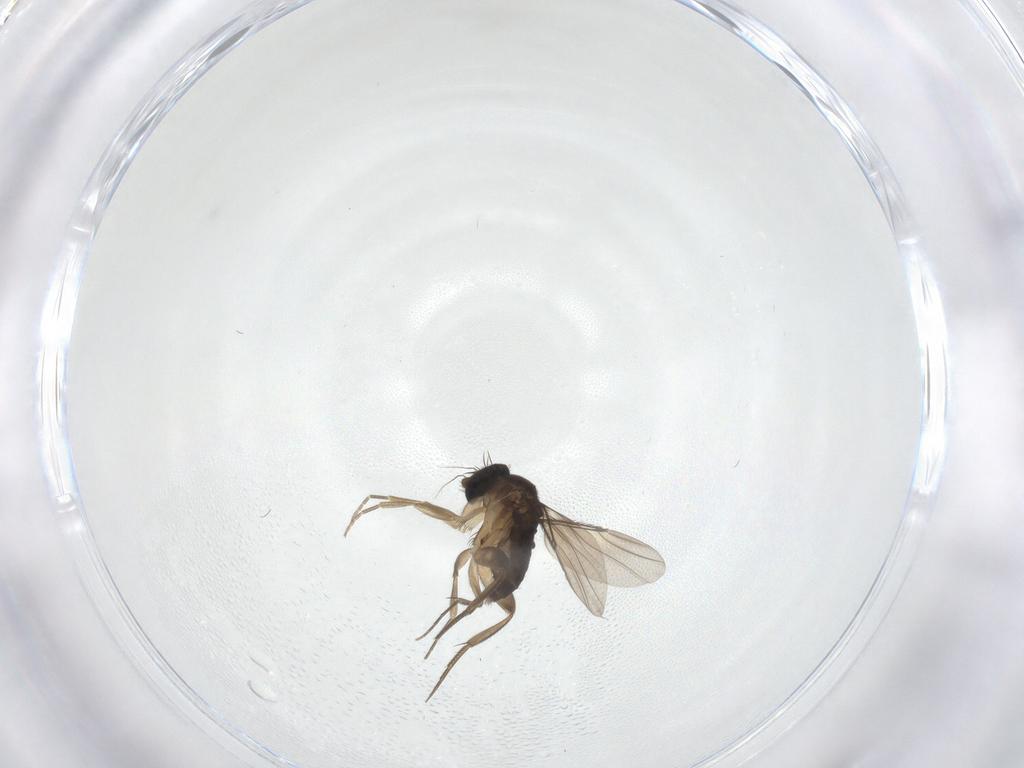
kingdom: Animalia
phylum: Arthropoda
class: Insecta
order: Diptera
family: Phoridae
